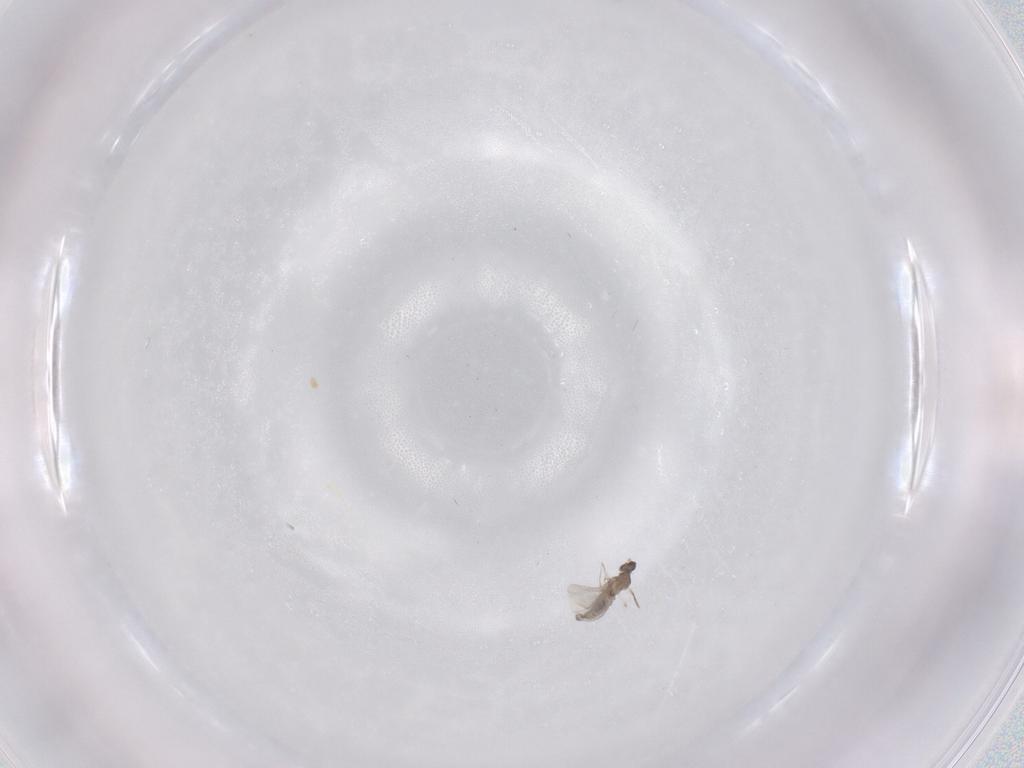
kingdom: Animalia
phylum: Arthropoda
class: Insecta
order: Diptera
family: Cecidomyiidae
